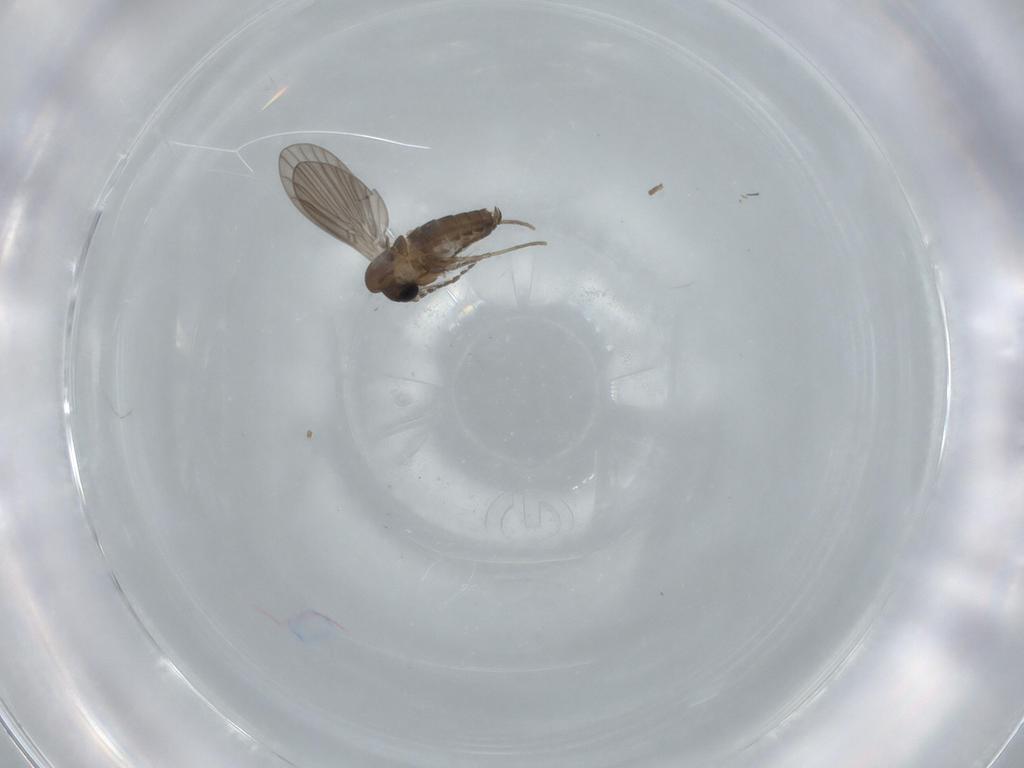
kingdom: Animalia
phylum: Arthropoda
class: Insecta
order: Diptera
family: Psychodidae
